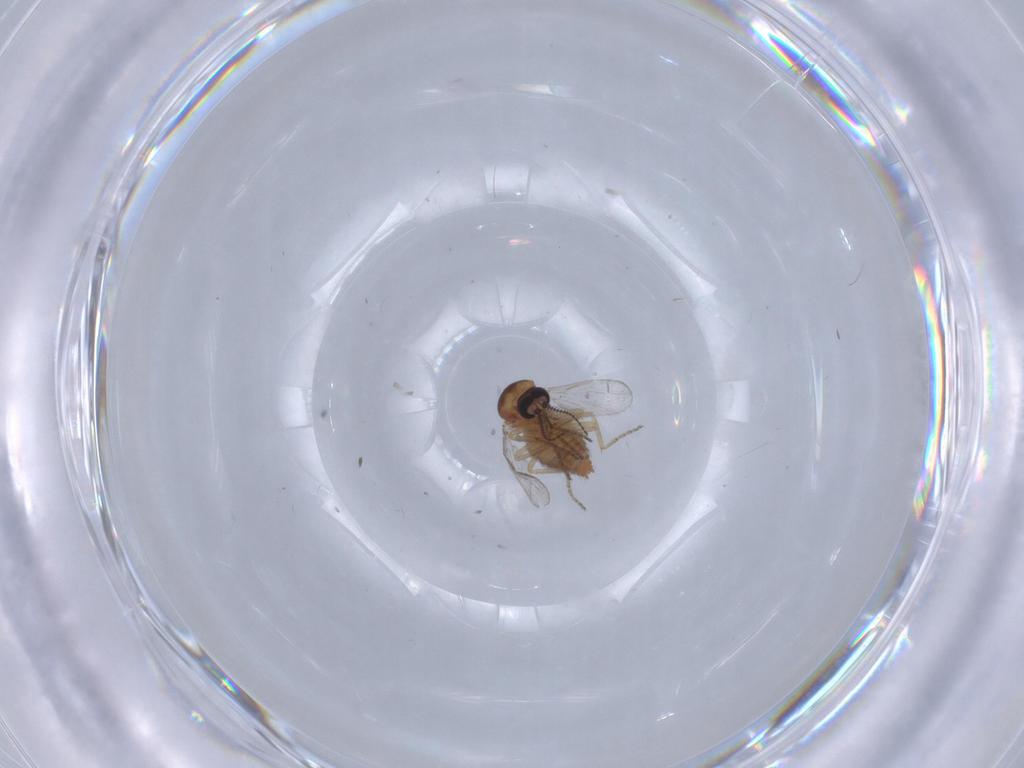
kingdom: Animalia
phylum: Arthropoda
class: Insecta
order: Diptera
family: Ceratopogonidae
